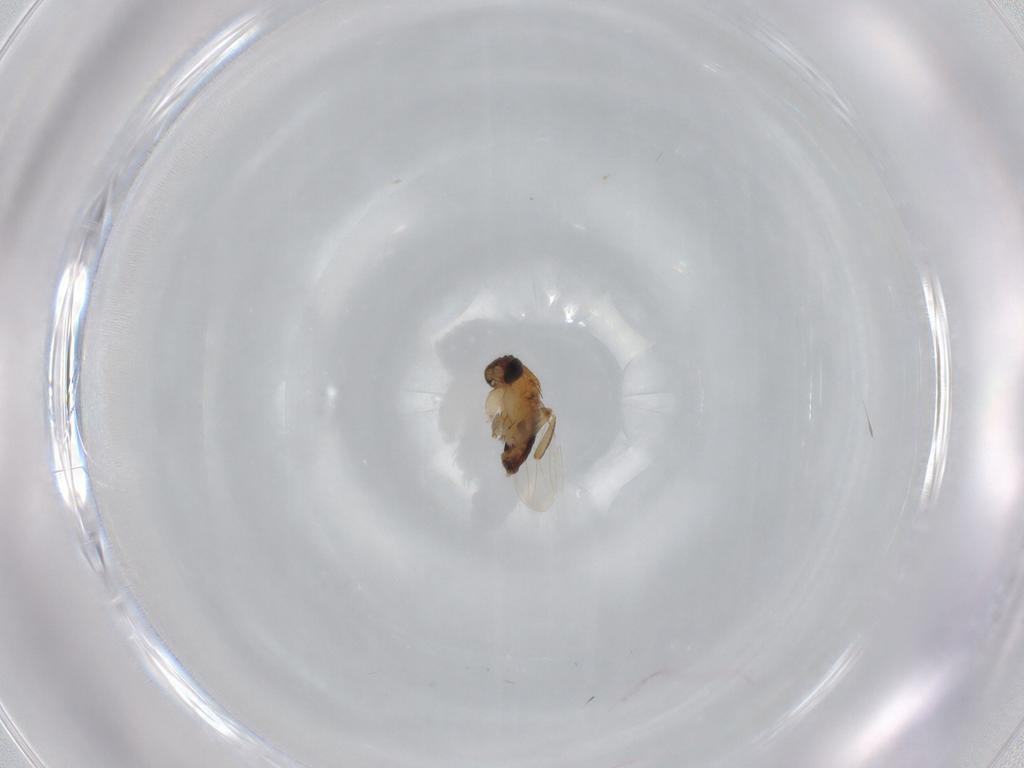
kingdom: Animalia
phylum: Arthropoda
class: Insecta
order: Diptera
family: Phoridae
